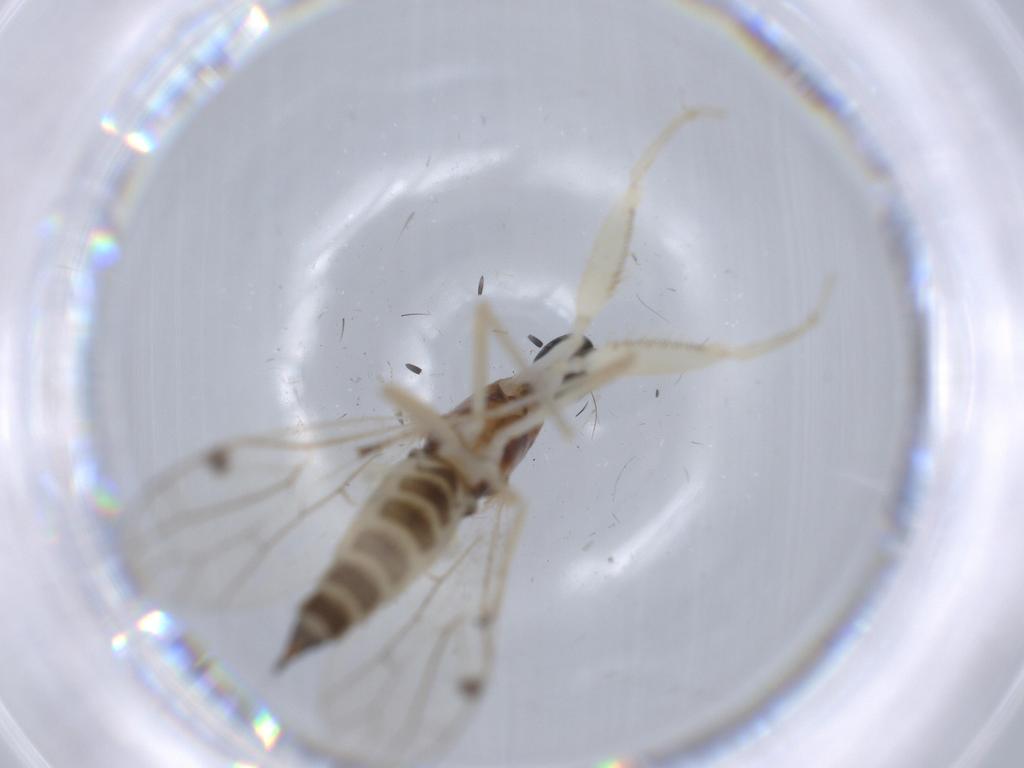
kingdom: Animalia
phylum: Arthropoda
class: Insecta
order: Diptera
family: Empididae
